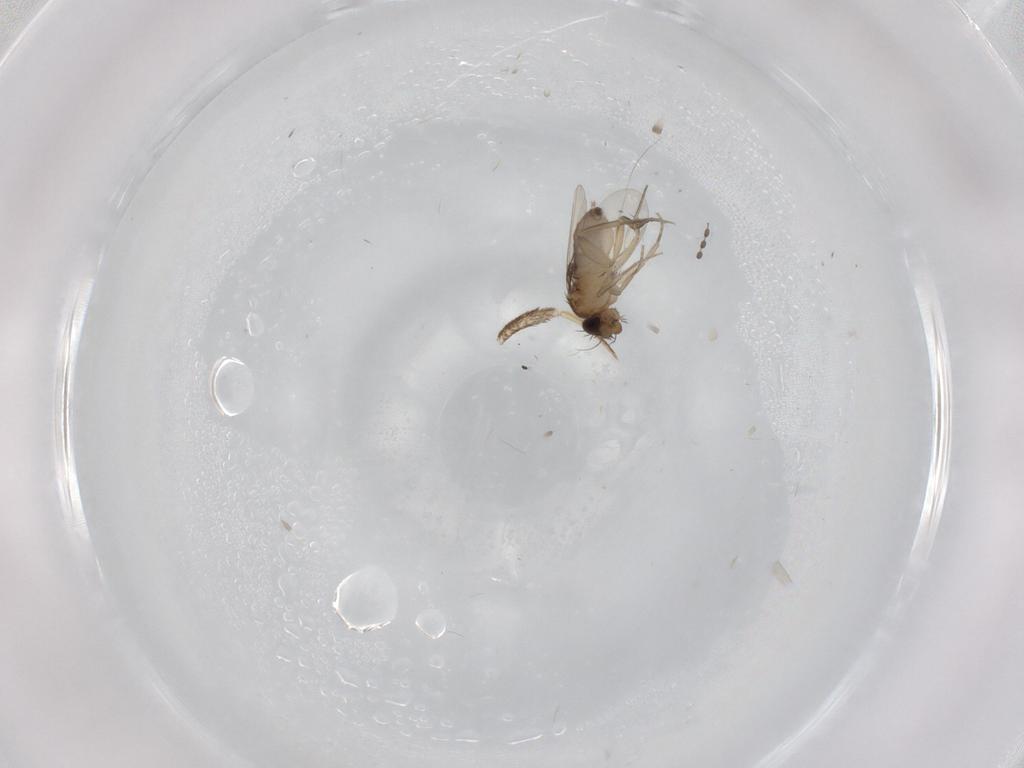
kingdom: Animalia
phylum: Arthropoda
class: Insecta
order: Diptera
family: Phoridae
